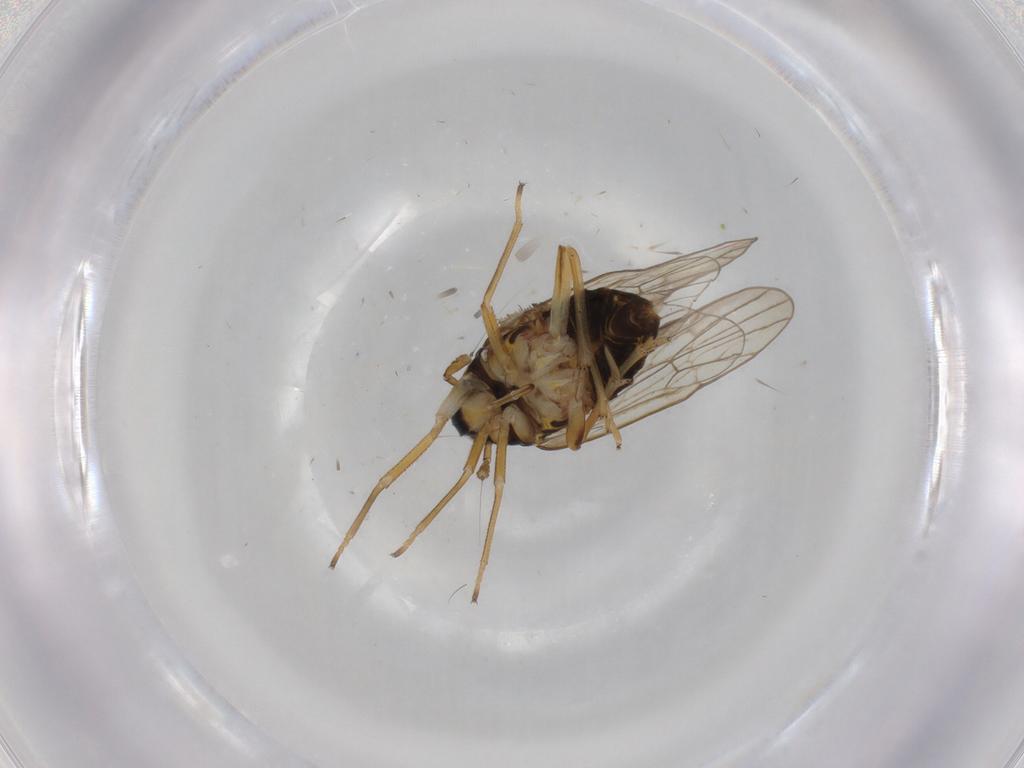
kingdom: Animalia
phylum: Arthropoda
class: Insecta
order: Hemiptera
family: Delphacidae
